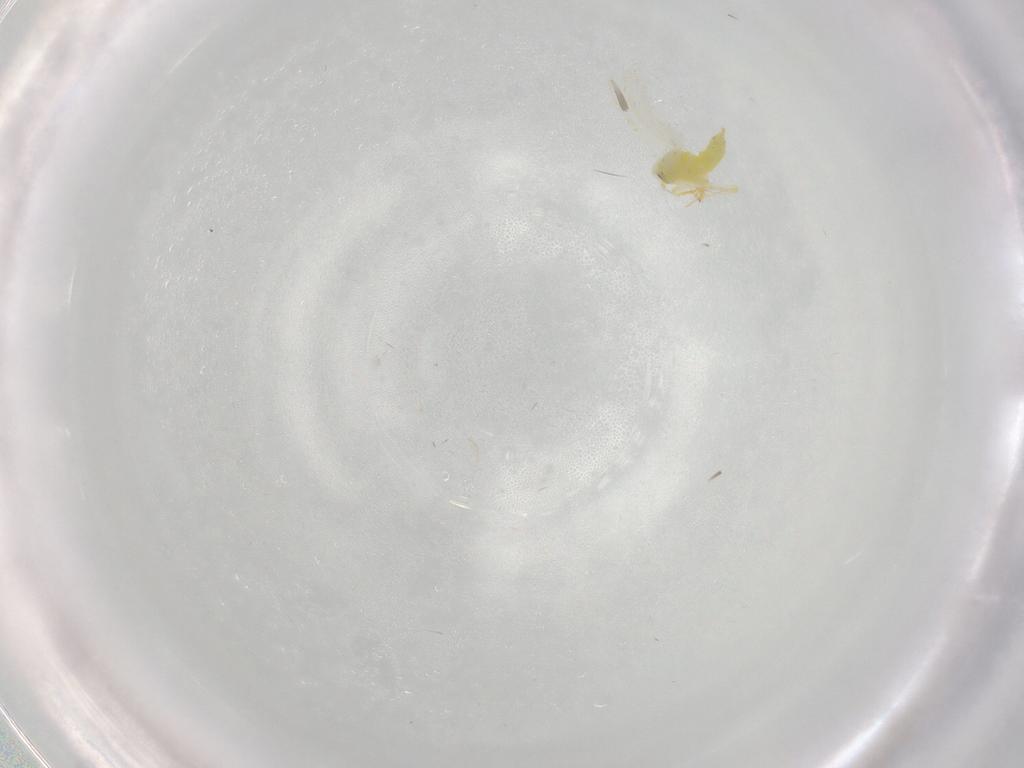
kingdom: Animalia
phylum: Arthropoda
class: Insecta
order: Hemiptera
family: Aleyrodidae
